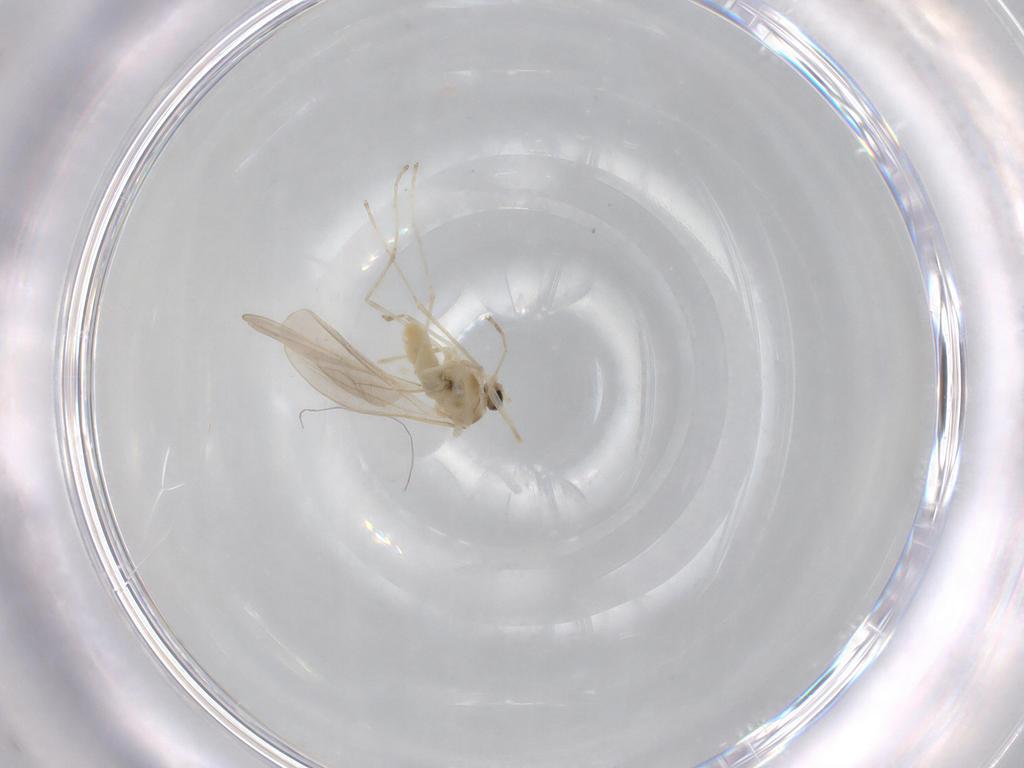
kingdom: Animalia
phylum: Arthropoda
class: Insecta
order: Diptera
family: Cecidomyiidae
